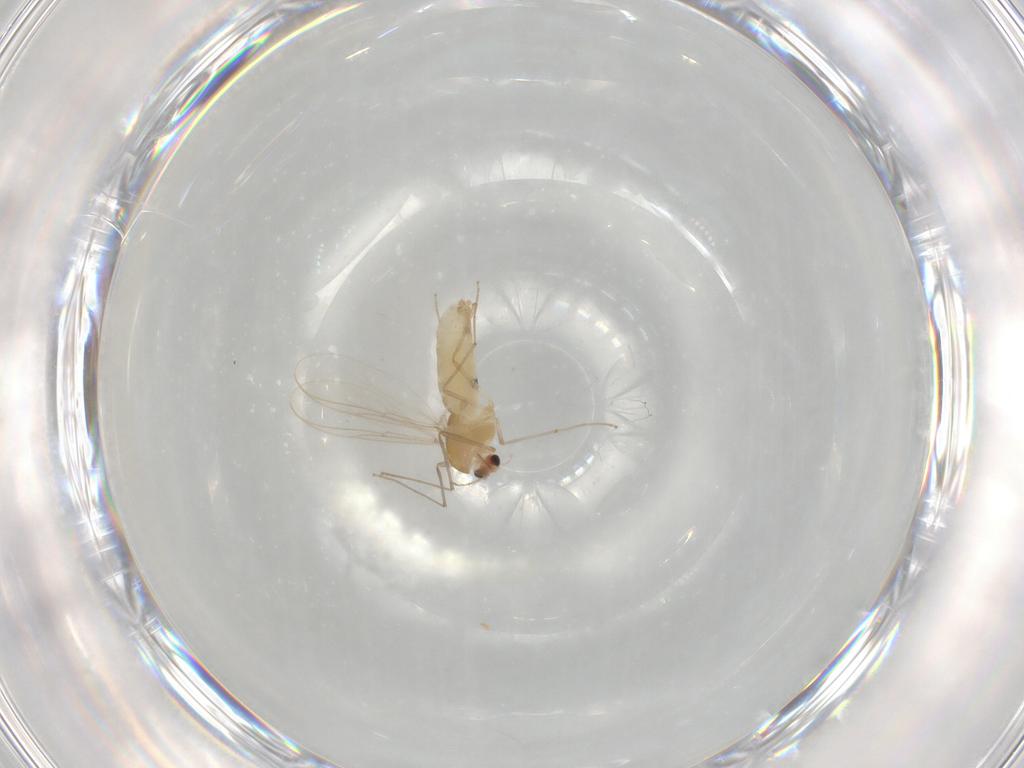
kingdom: Animalia
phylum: Arthropoda
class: Insecta
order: Diptera
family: Chironomidae
